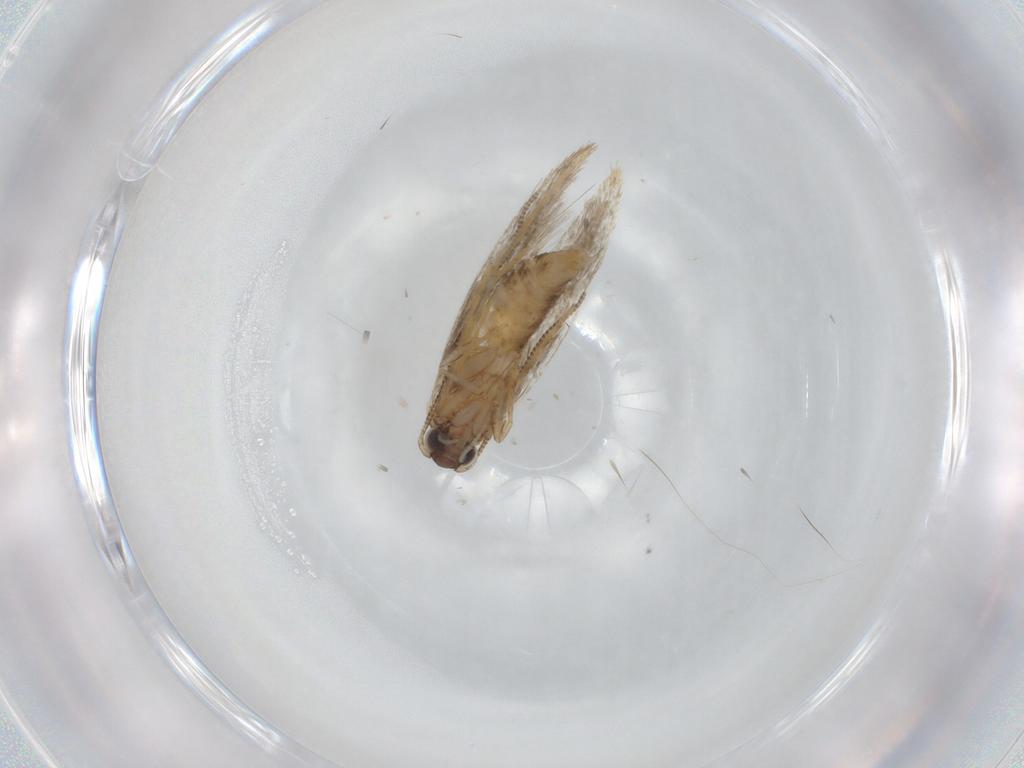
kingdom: Animalia
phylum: Arthropoda
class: Insecta
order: Lepidoptera
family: Tineidae
